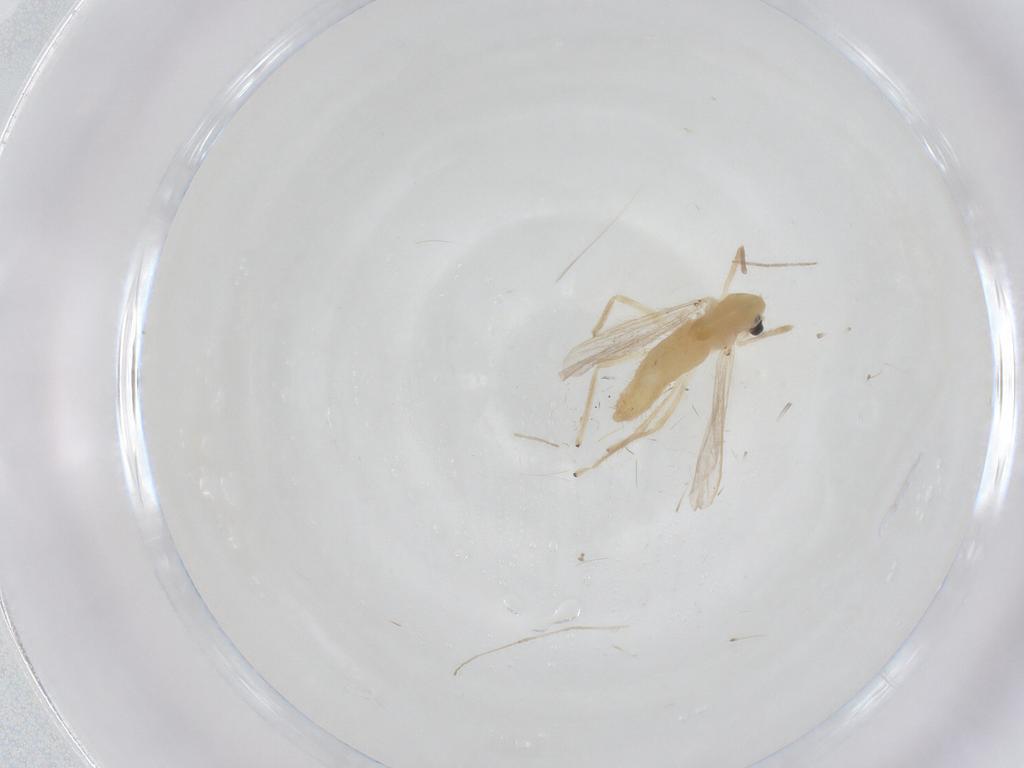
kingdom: Animalia
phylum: Arthropoda
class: Insecta
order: Diptera
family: Chironomidae
